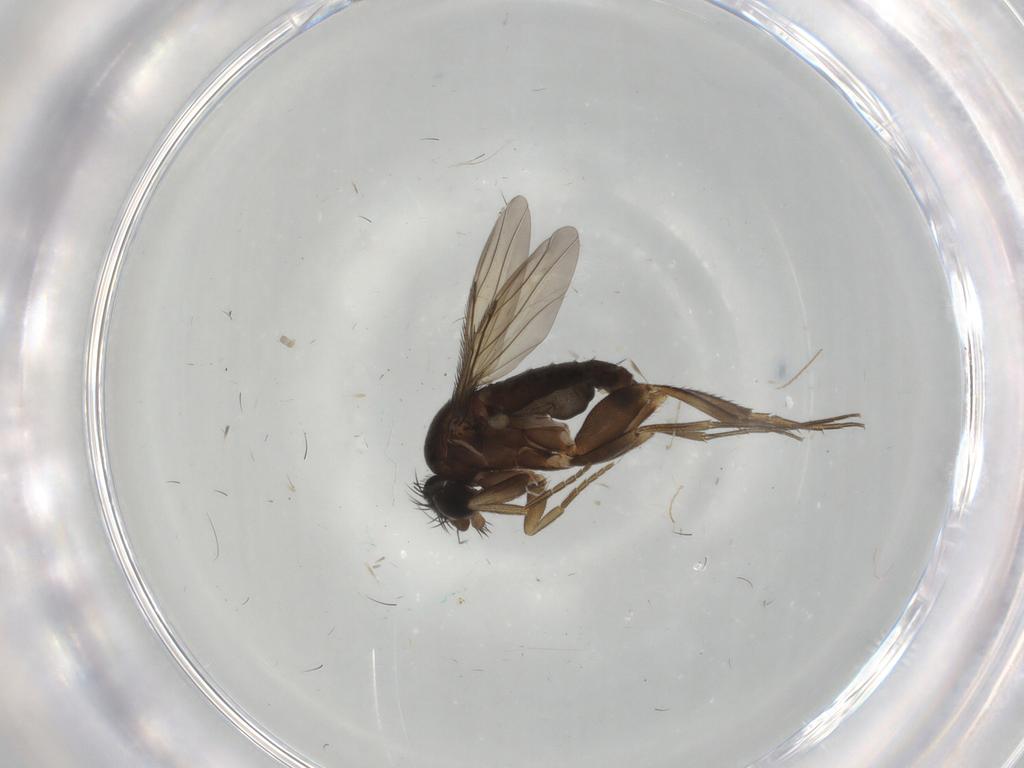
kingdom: Animalia
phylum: Arthropoda
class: Insecta
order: Diptera
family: Phoridae
